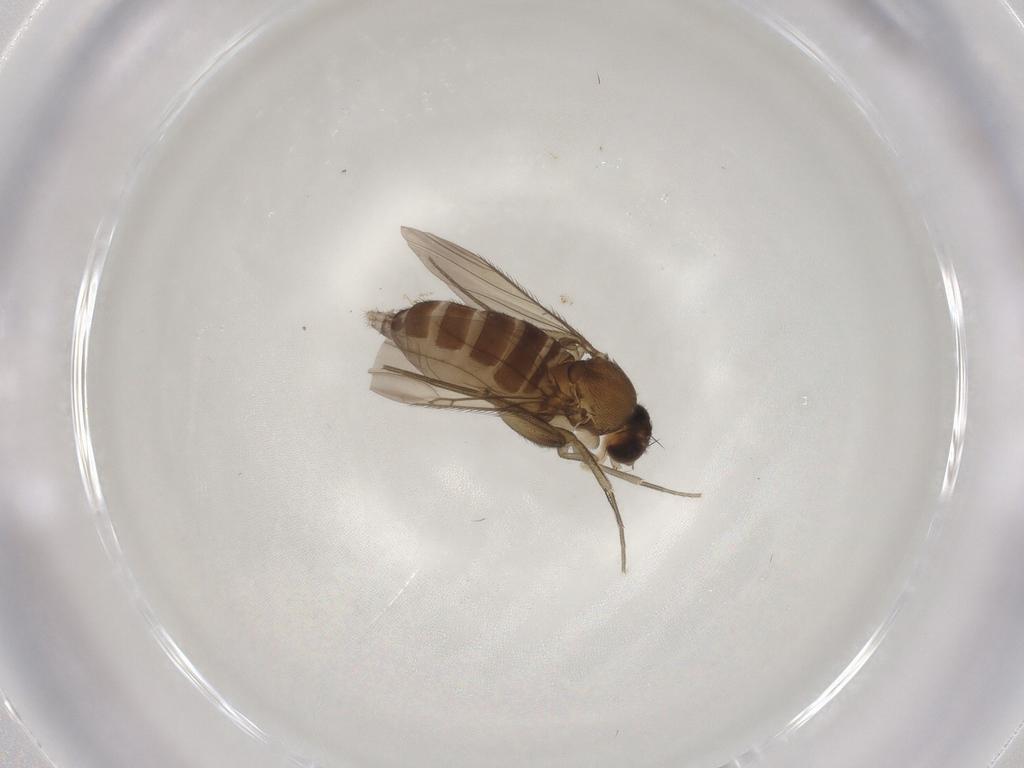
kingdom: Animalia
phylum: Arthropoda
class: Insecta
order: Diptera
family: Phoridae
